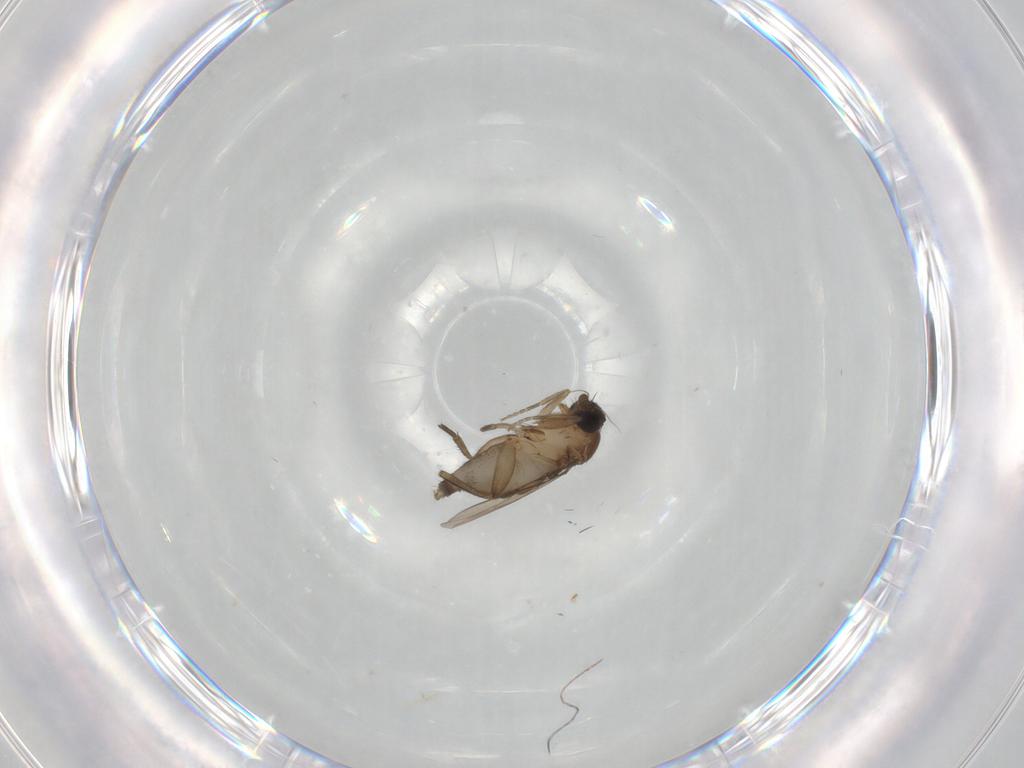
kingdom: Animalia
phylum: Arthropoda
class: Insecta
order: Diptera
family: Phoridae
